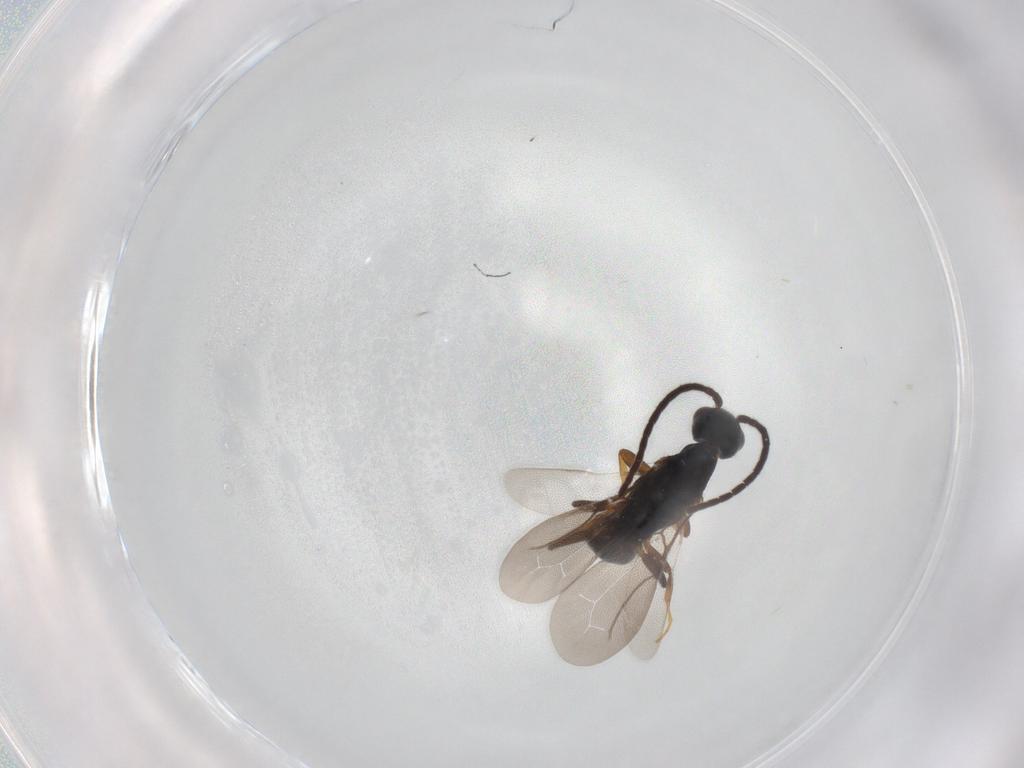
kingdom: Animalia
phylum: Arthropoda
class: Insecta
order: Hymenoptera
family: Bethylidae
